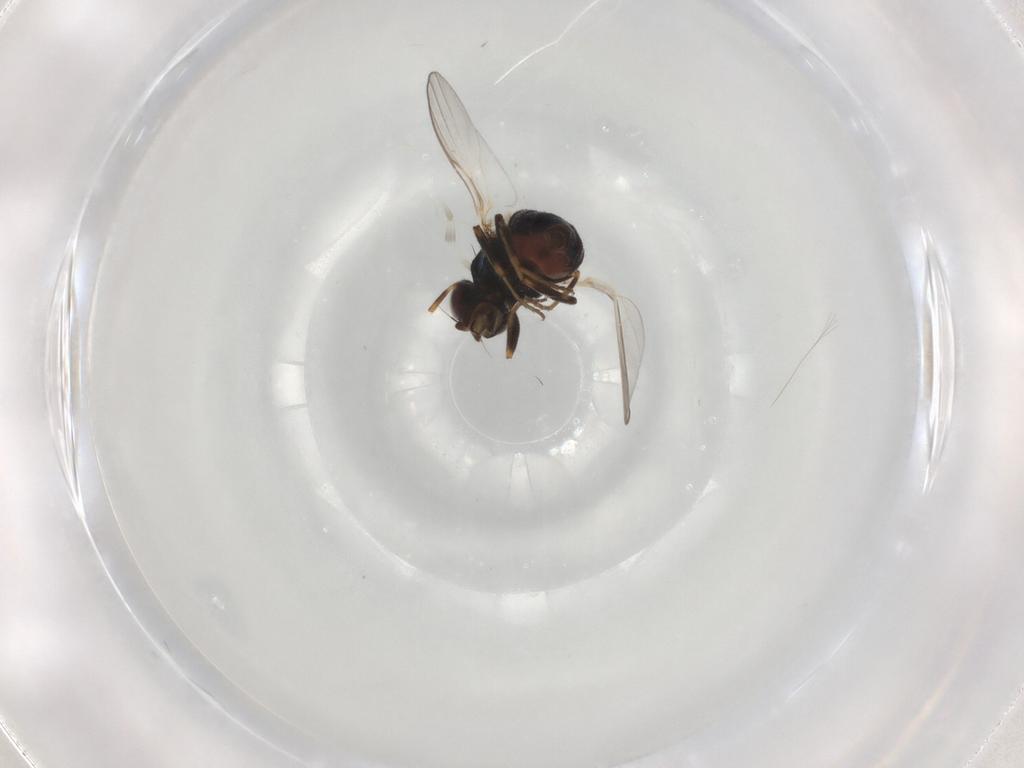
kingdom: Animalia
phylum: Arthropoda
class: Insecta
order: Diptera
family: Chloropidae
